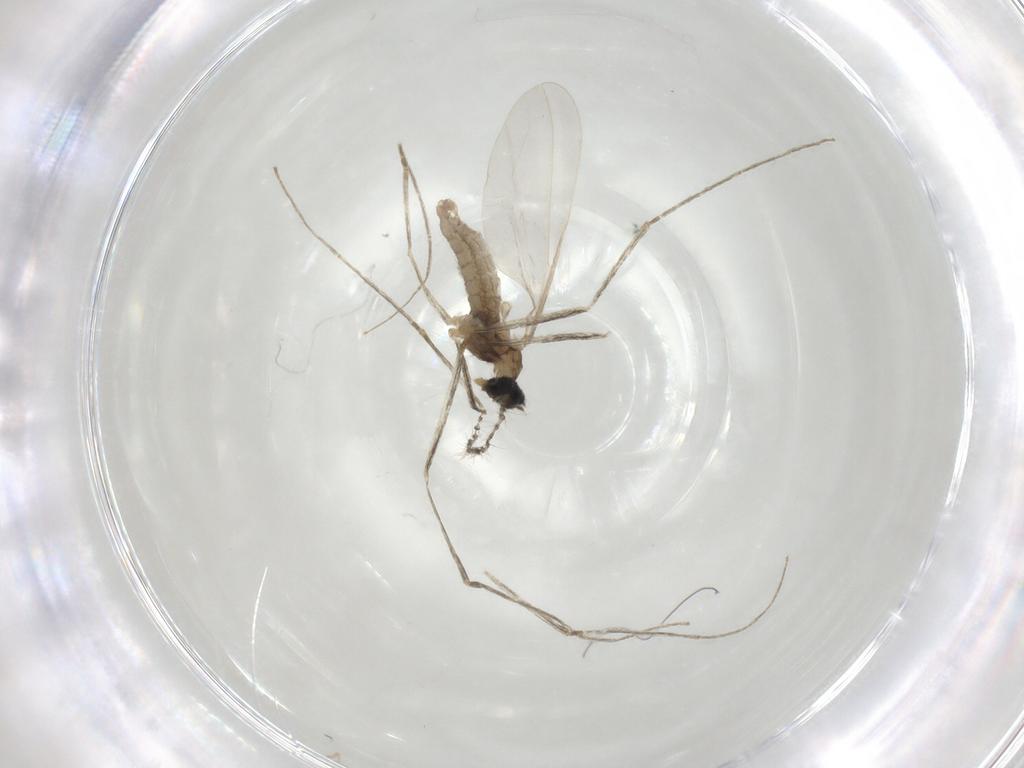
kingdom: Animalia
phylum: Arthropoda
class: Insecta
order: Diptera
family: Cecidomyiidae
